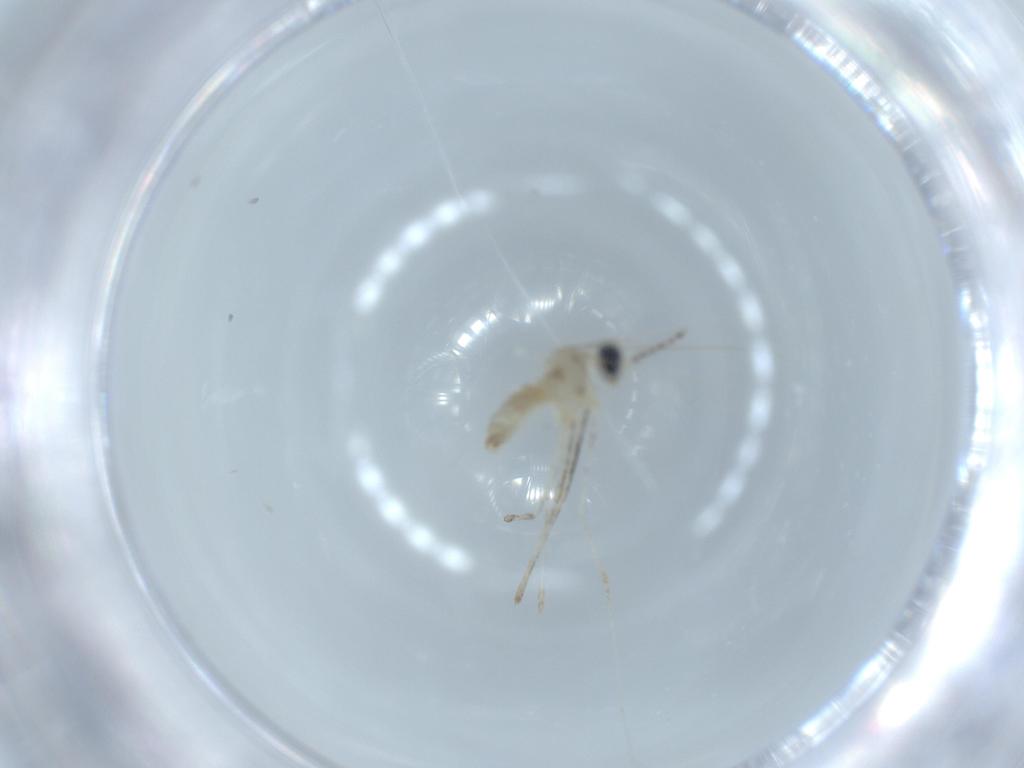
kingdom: Animalia
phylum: Arthropoda
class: Insecta
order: Diptera
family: Cecidomyiidae
